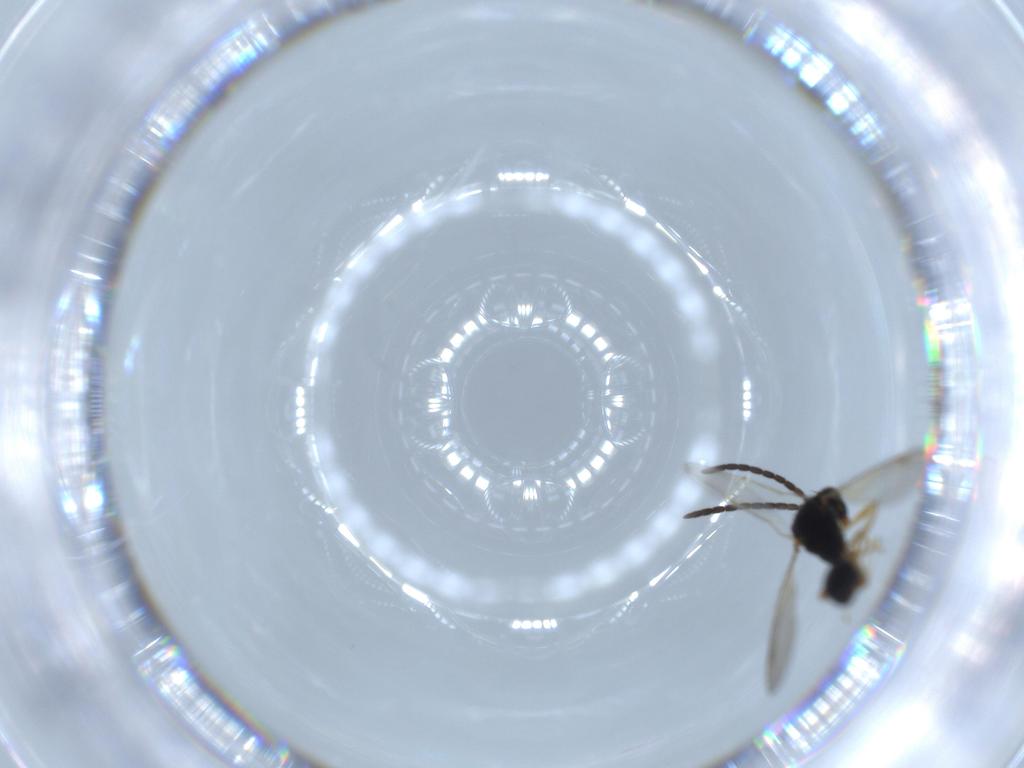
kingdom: Animalia
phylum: Arthropoda
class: Insecta
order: Hymenoptera
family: Diparidae
